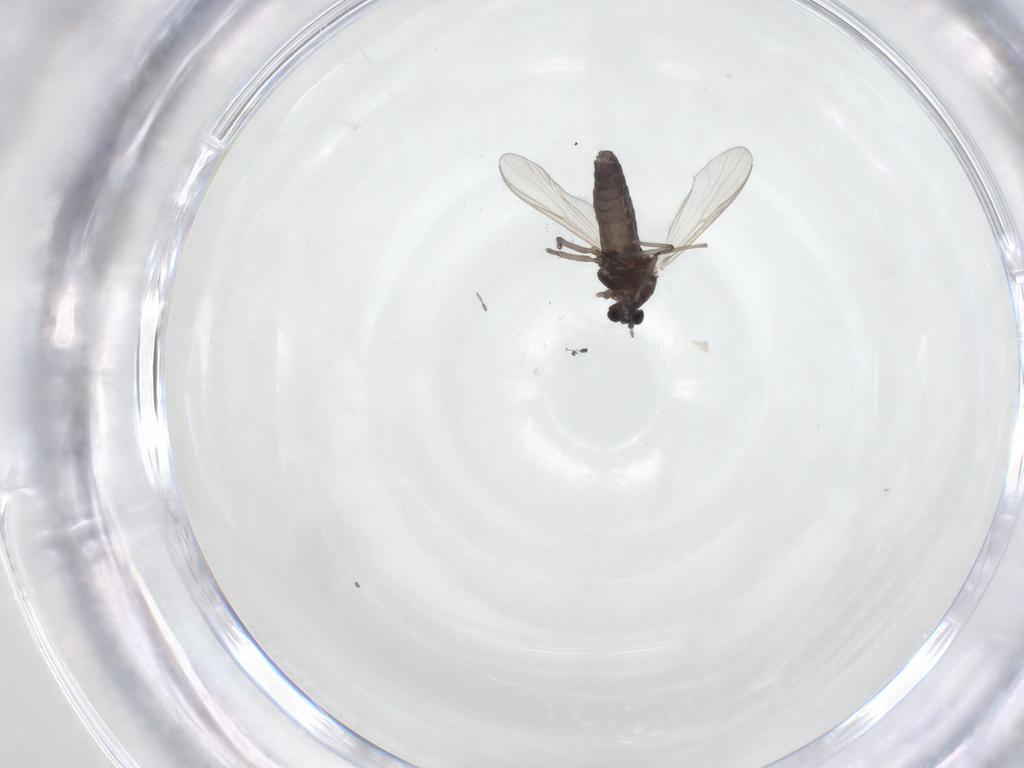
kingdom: Animalia
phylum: Arthropoda
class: Insecta
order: Diptera
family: Chironomidae
